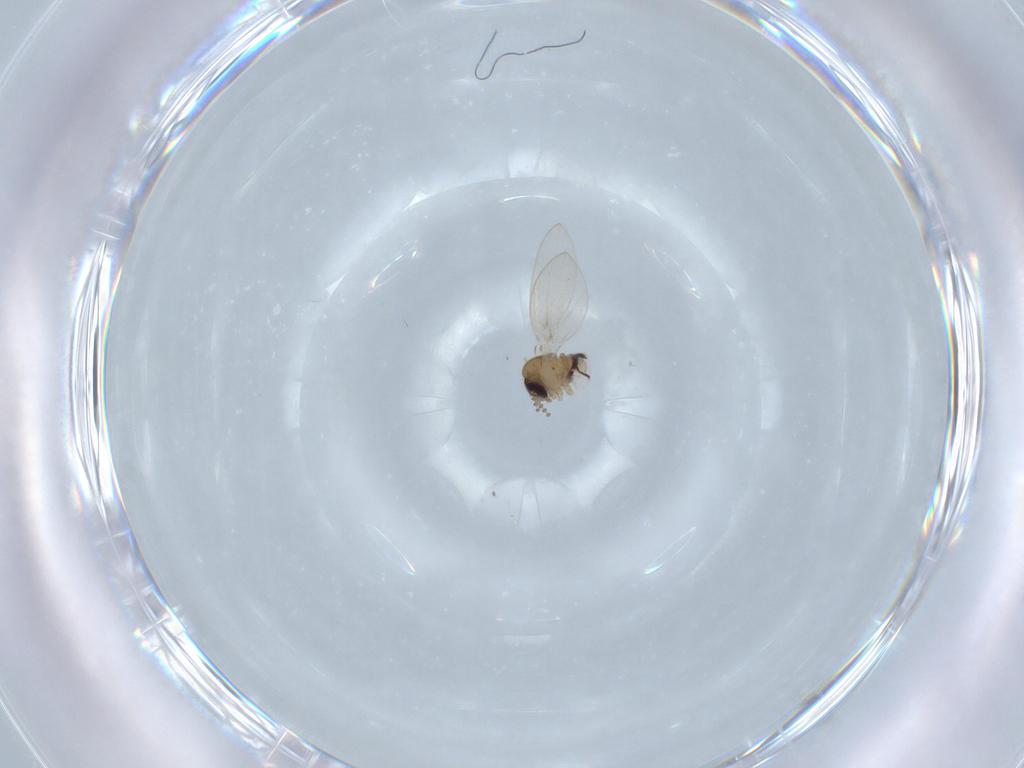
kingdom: Animalia
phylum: Arthropoda
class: Insecta
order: Diptera
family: Psychodidae
